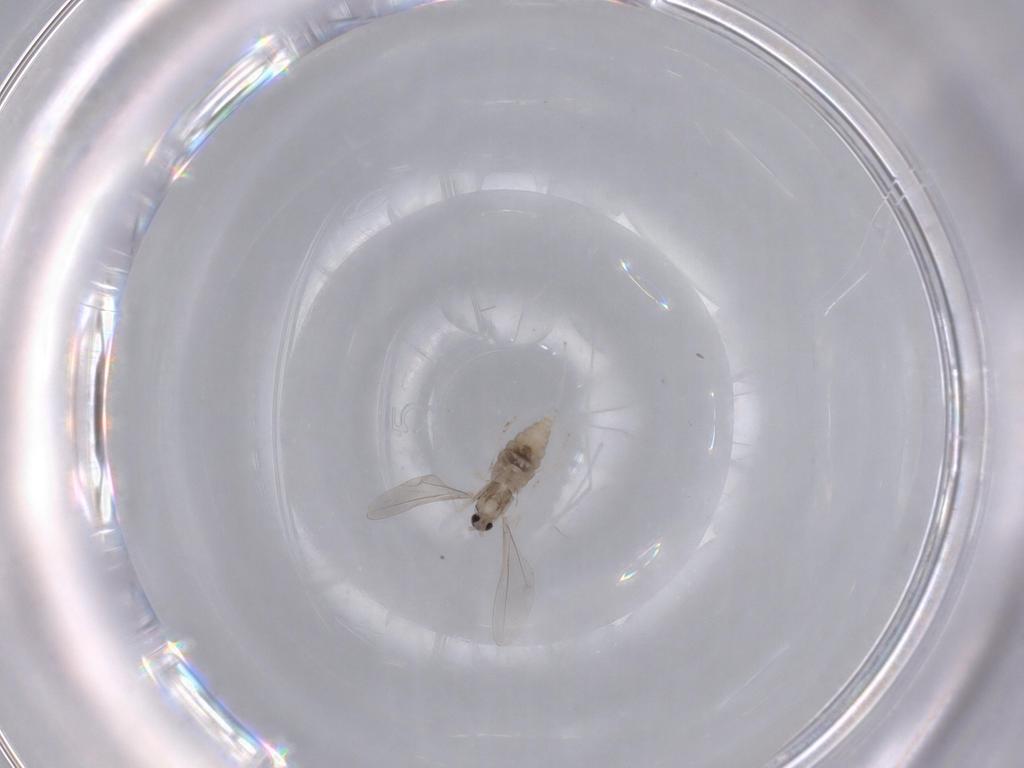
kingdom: Animalia
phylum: Arthropoda
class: Insecta
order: Diptera
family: Cecidomyiidae
